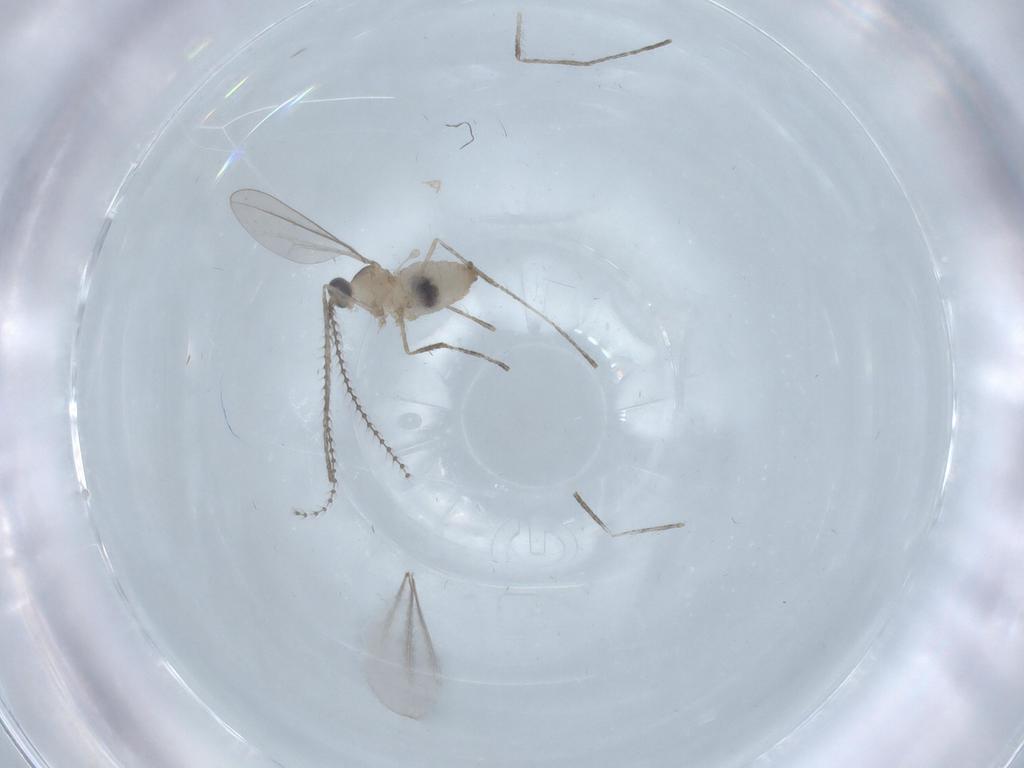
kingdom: Animalia
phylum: Arthropoda
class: Insecta
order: Diptera
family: Cecidomyiidae
